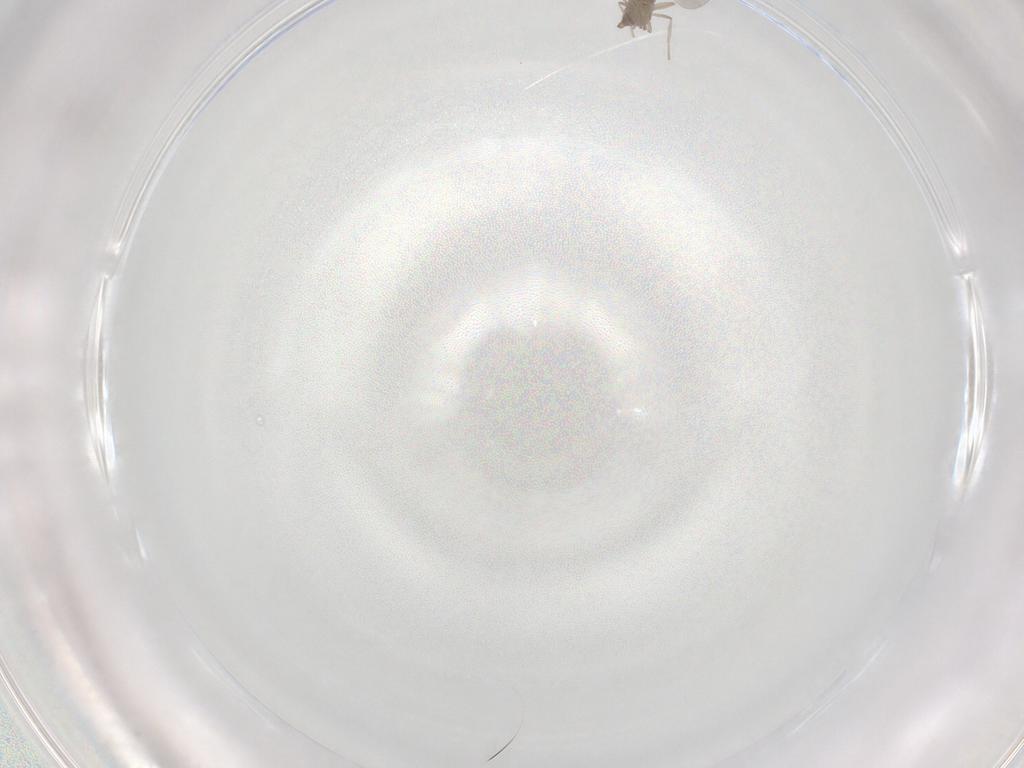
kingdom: Animalia
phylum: Arthropoda
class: Insecta
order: Diptera
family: Cecidomyiidae
